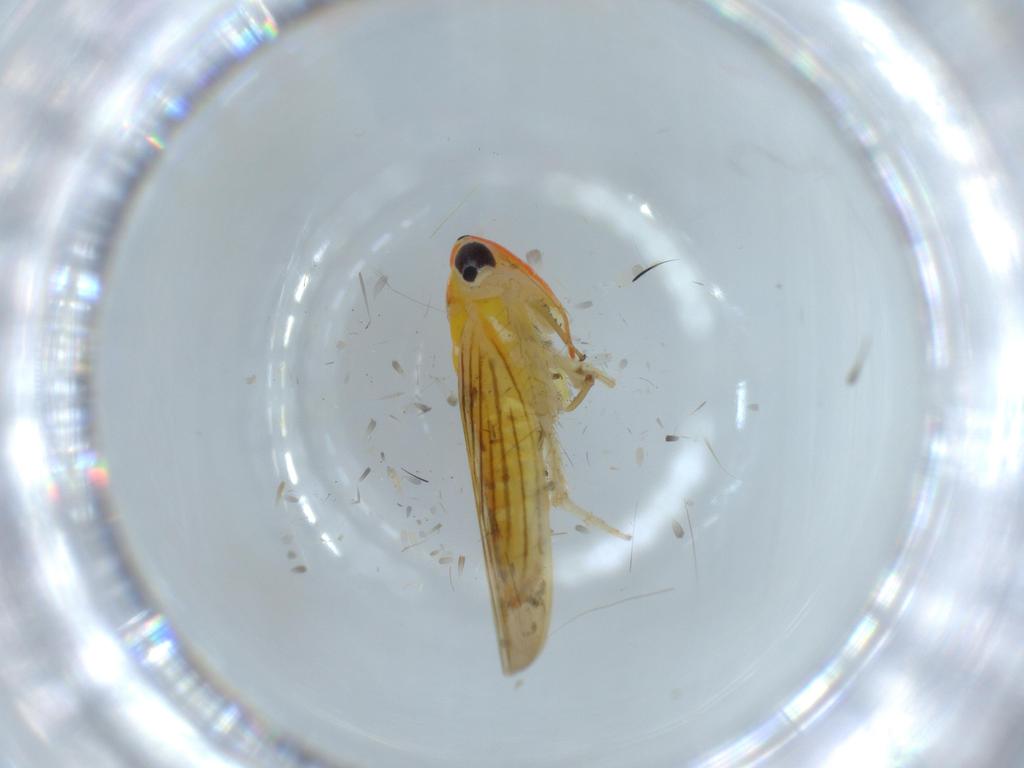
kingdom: Animalia
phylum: Arthropoda
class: Insecta
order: Hemiptera
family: Cicadellidae
